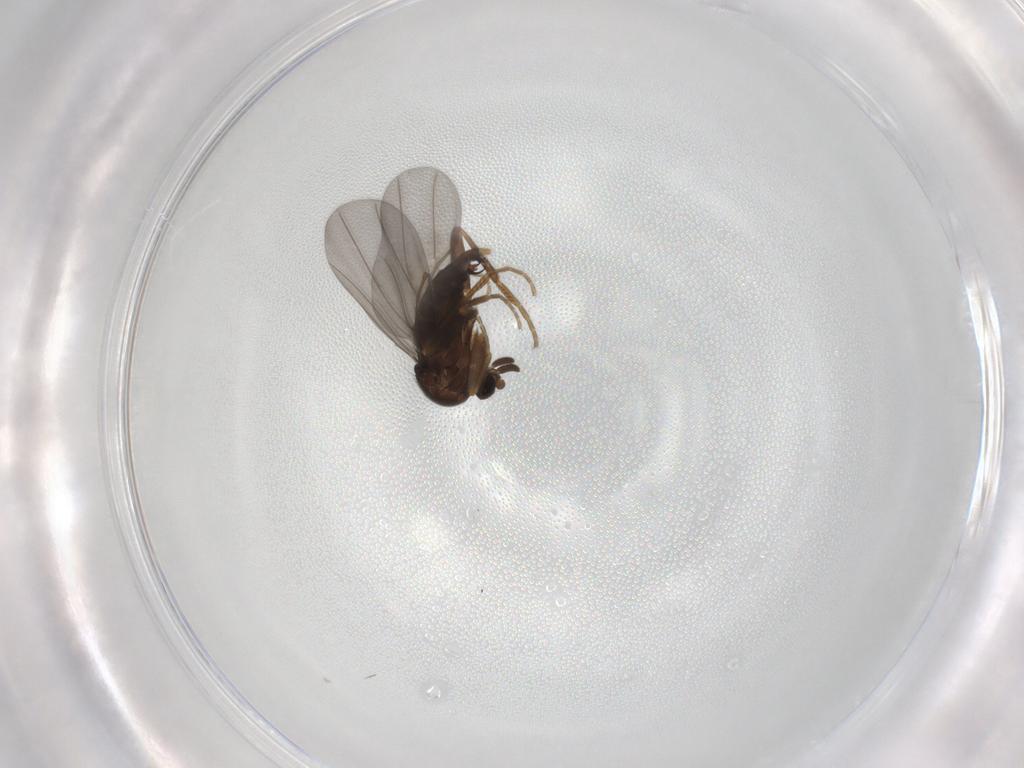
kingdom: Animalia
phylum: Arthropoda
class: Insecta
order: Diptera
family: Phoridae
